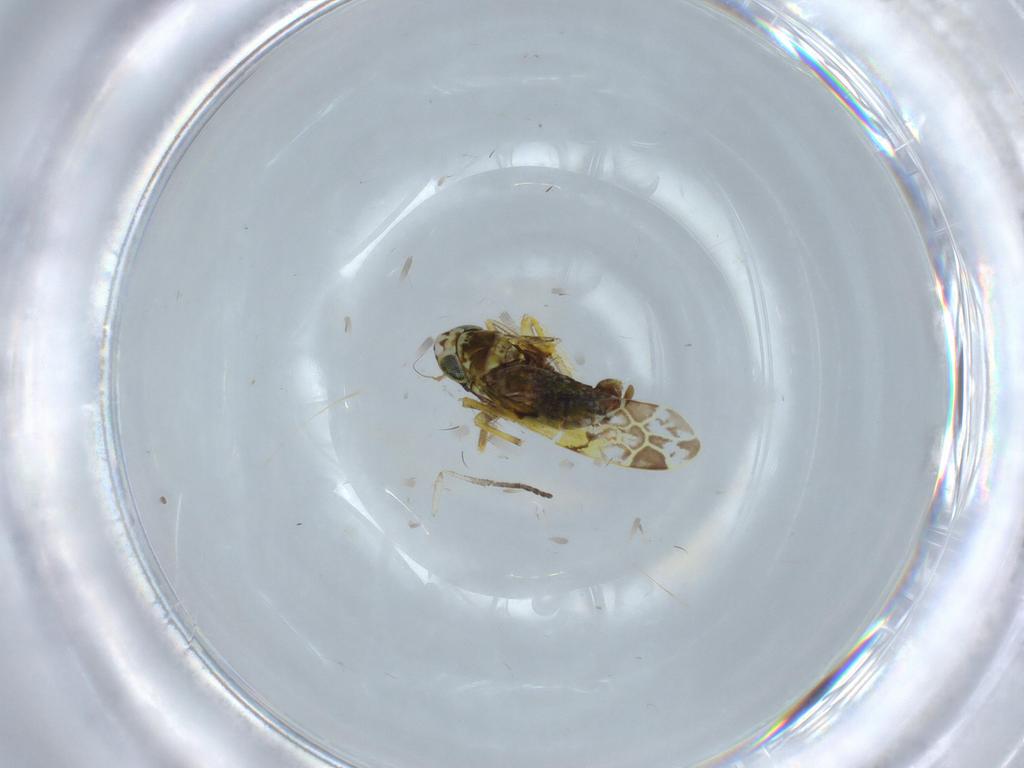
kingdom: Animalia
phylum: Arthropoda
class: Insecta
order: Hemiptera
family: Cicadellidae
